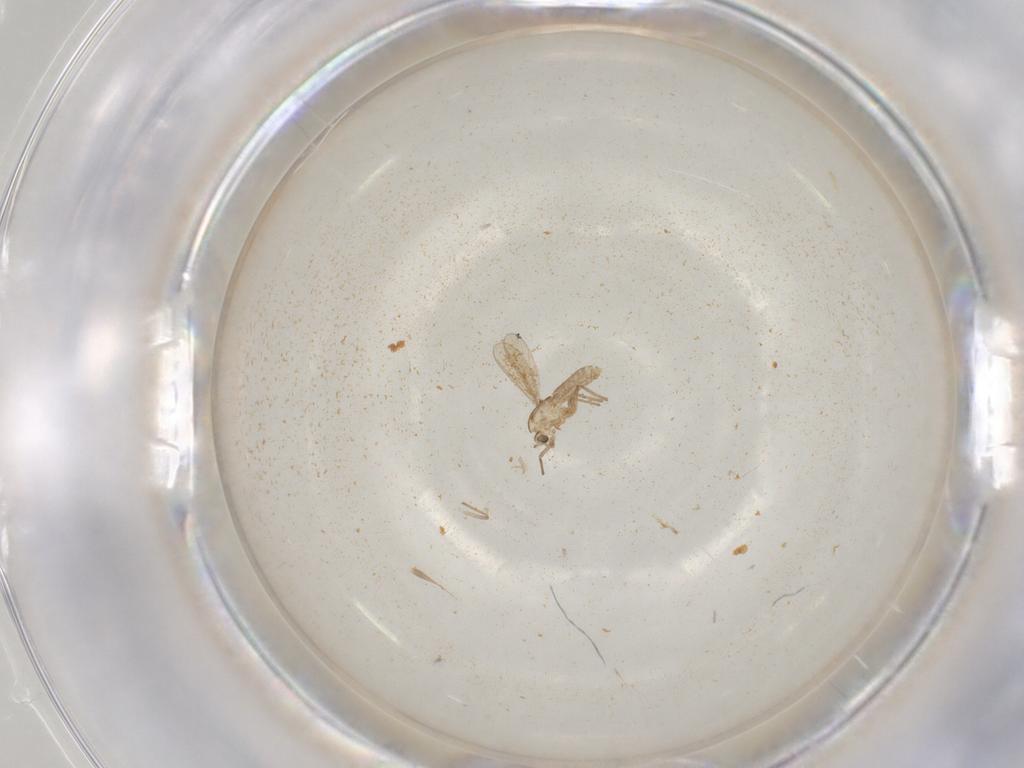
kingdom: Animalia
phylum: Arthropoda
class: Insecta
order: Diptera
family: Chironomidae
